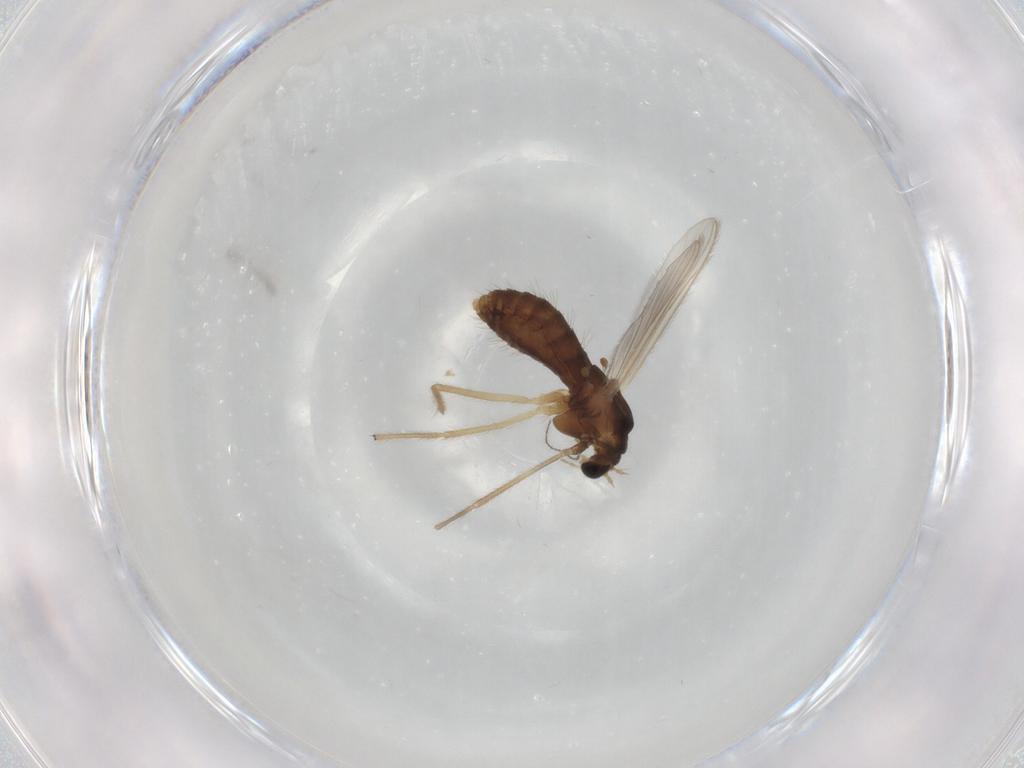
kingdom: Animalia
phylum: Arthropoda
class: Insecta
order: Diptera
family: Chironomidae
